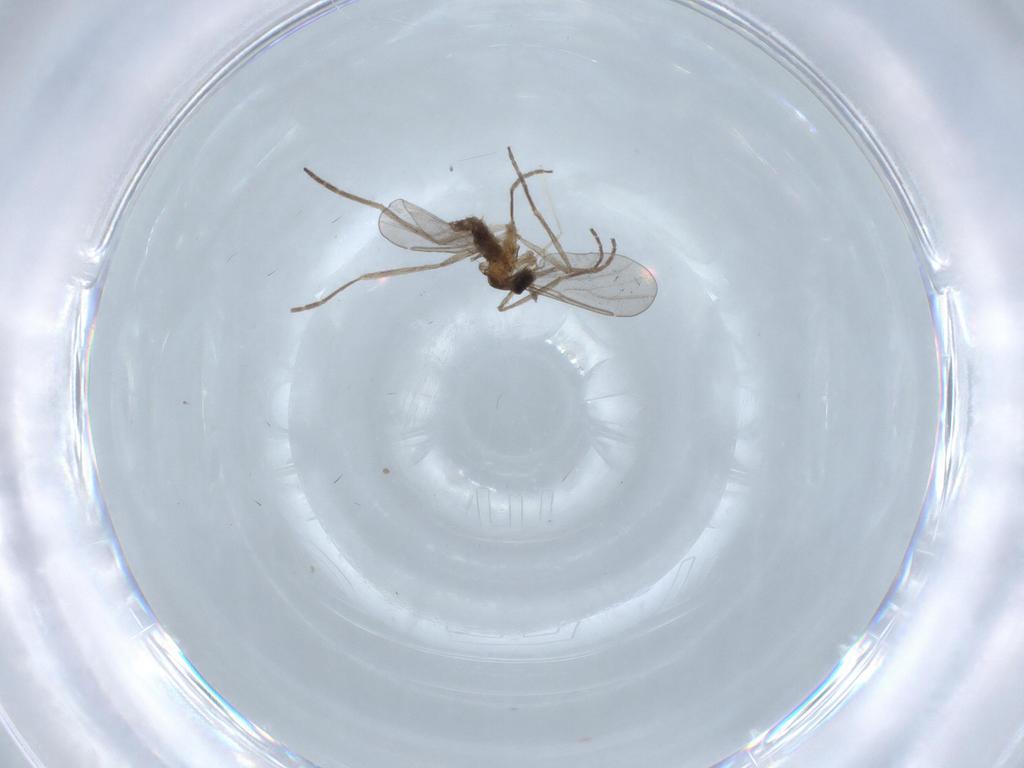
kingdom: Animalia
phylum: Arthropoda
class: Insecta
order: Diptera
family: Cecidomyiidae
